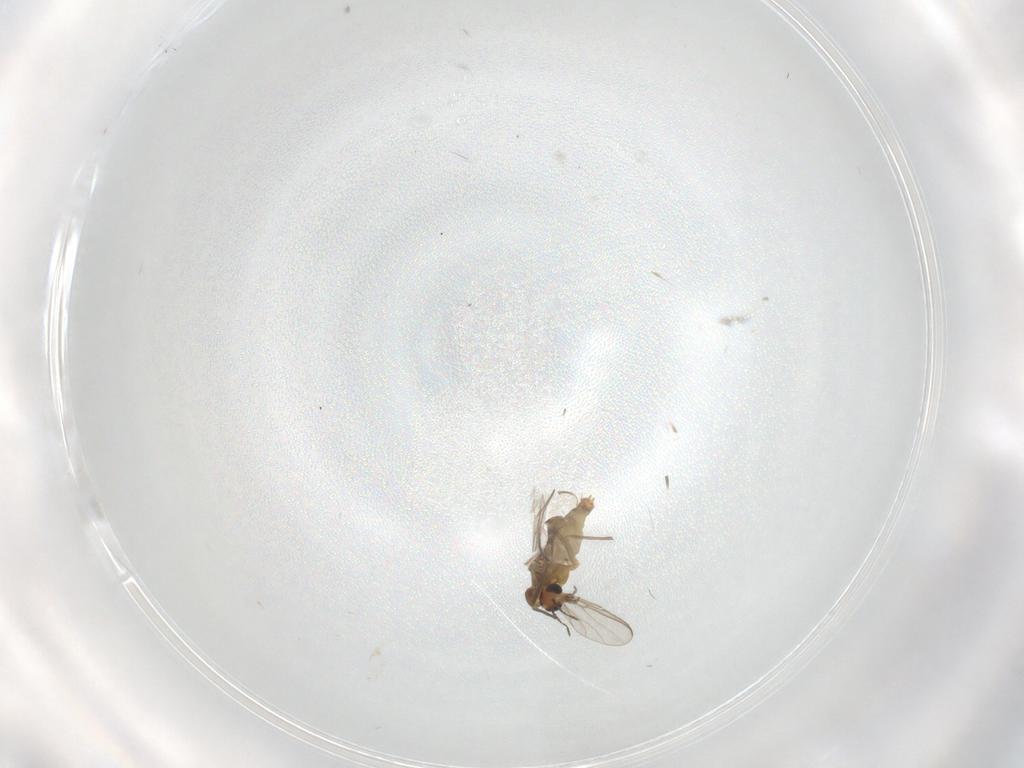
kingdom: Animalia
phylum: Arthropoda
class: Insecta
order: Diptera
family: Chironomidae
